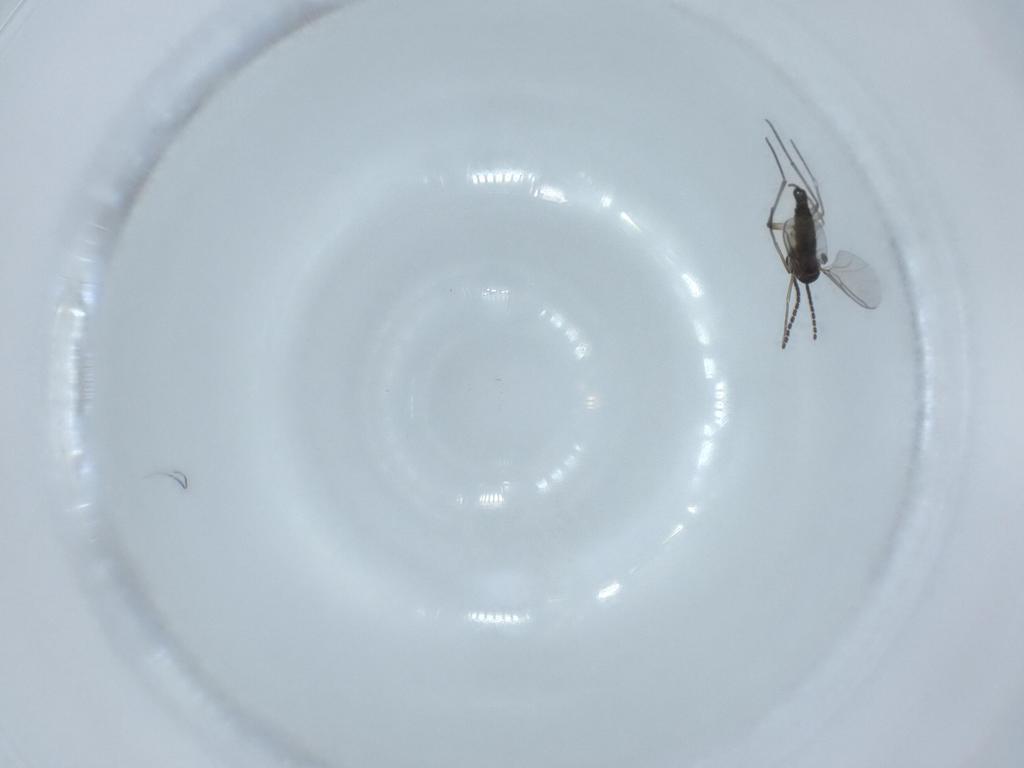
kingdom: Animalia
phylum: Arthropoda
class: Insecta
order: Diptera
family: Sciaridae
